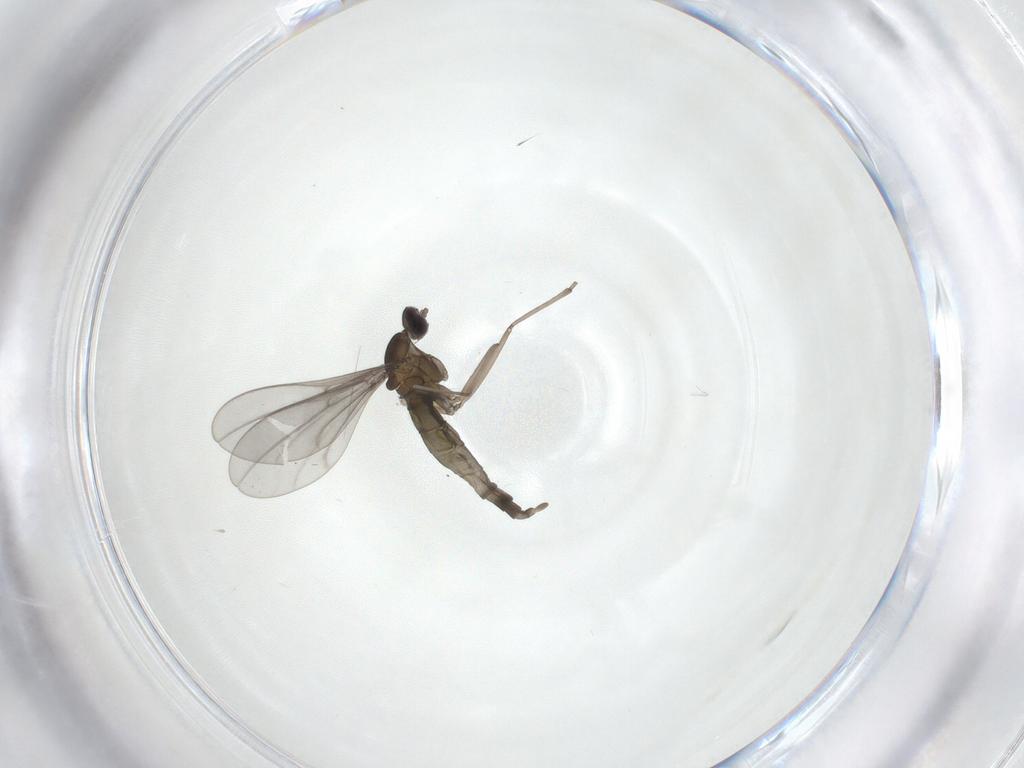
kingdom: Animalia
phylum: Arthropoda
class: Insecta
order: Diptera
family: Cecidomyiidae
